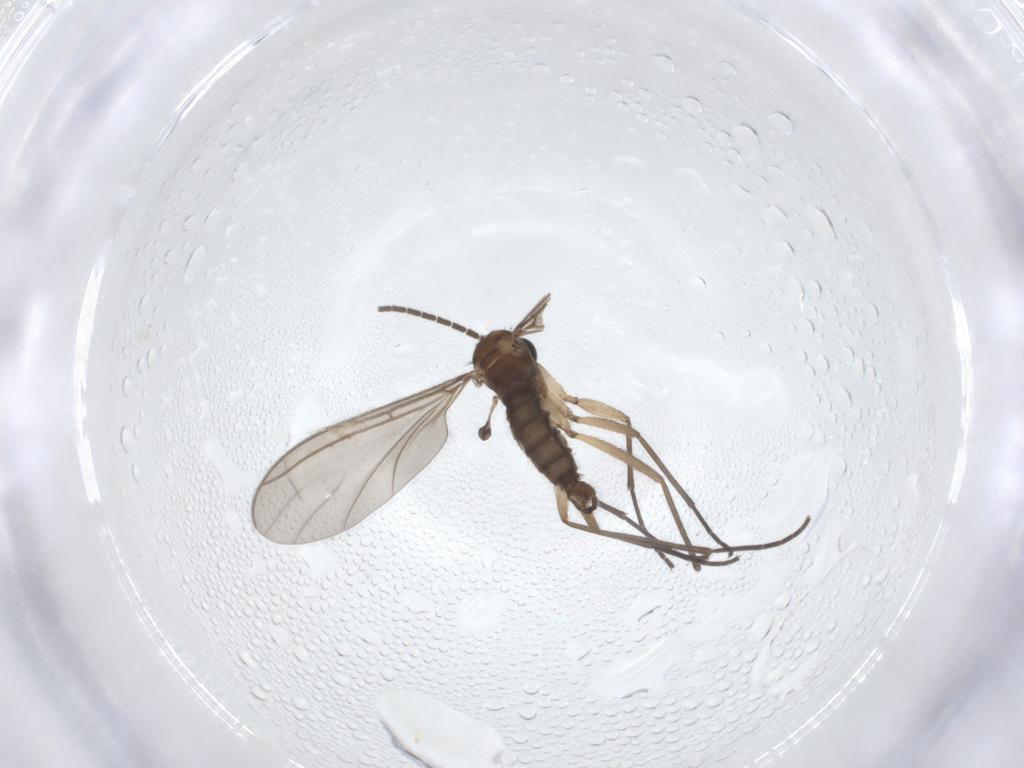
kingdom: Animalia
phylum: Arthropoda
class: Insecta
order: Diptera
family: Sciaridae
